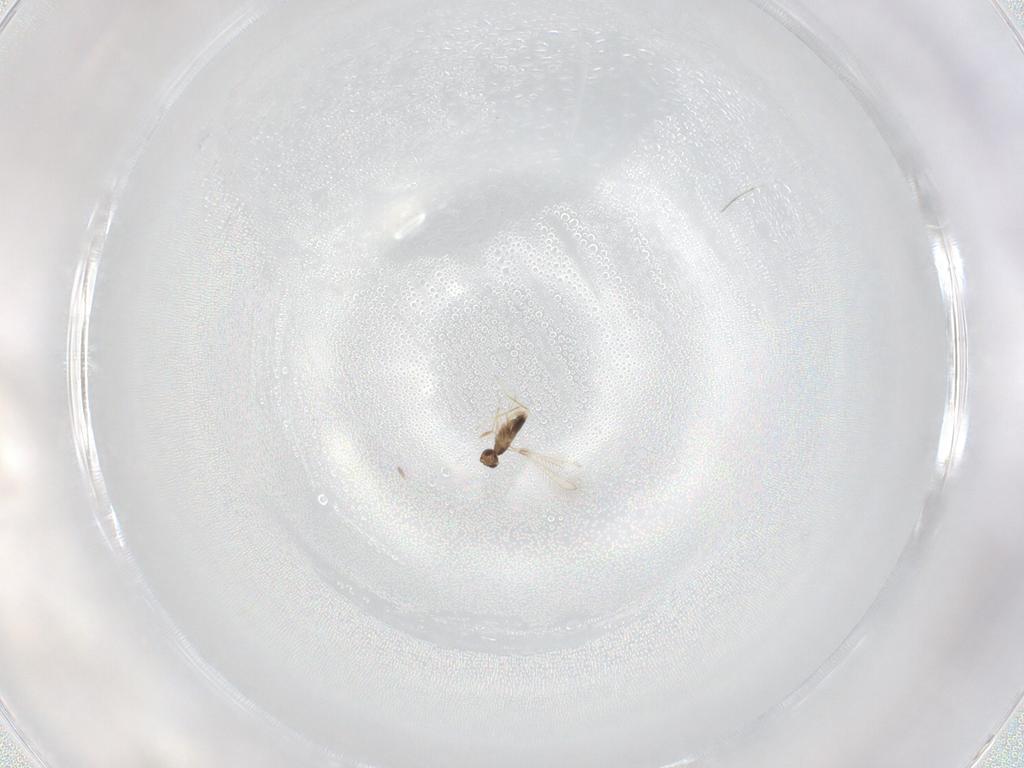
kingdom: Animalia
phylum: Arthropoda
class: Insecta
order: Hymenoptera
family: Mymaridae
